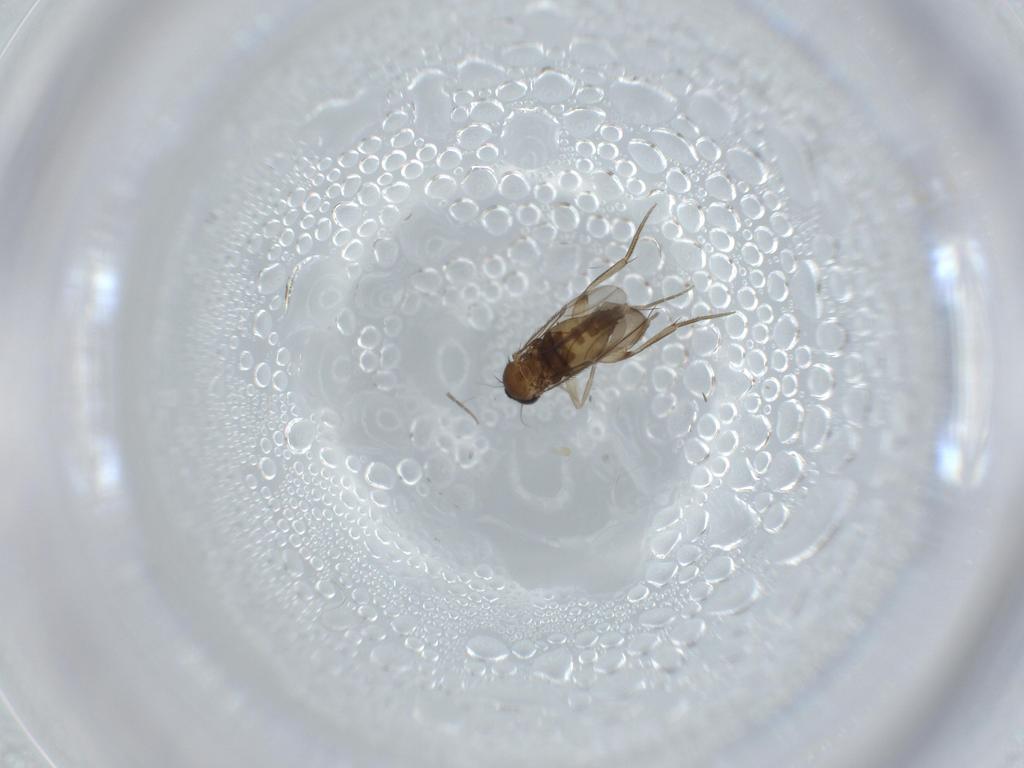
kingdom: Animalia
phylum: Arthropoda
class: Insecta
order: Diptera
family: Phoridae
